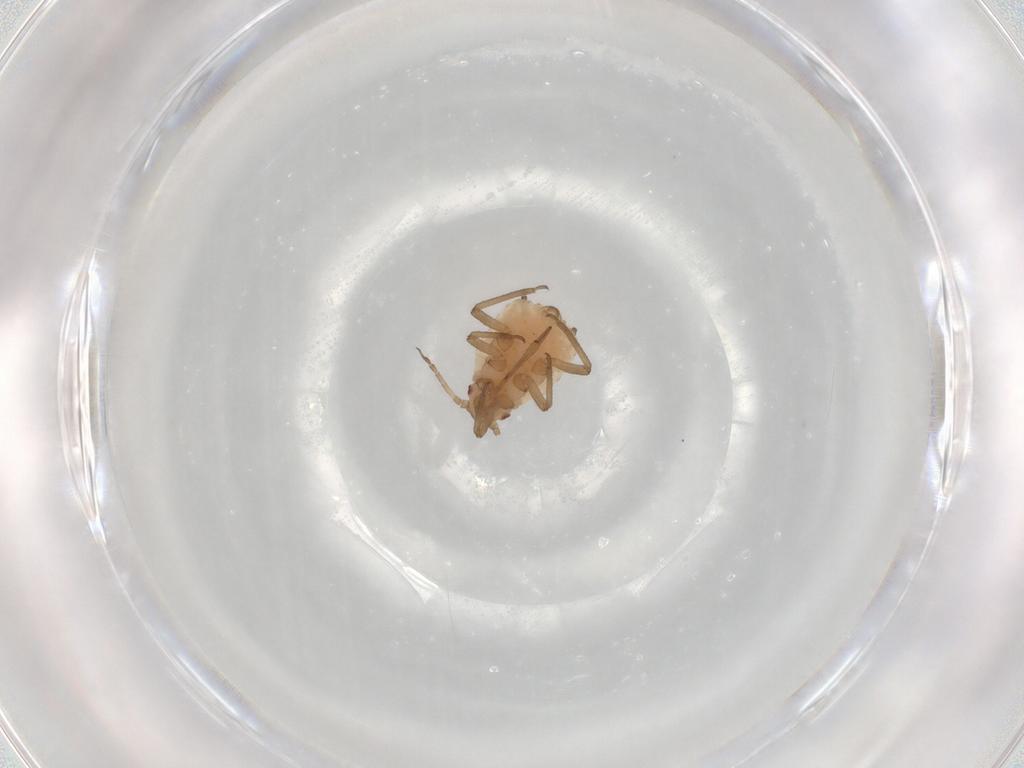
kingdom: Animalia
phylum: Arthropoda
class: Insecta
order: Hemiptera
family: Aphididae
